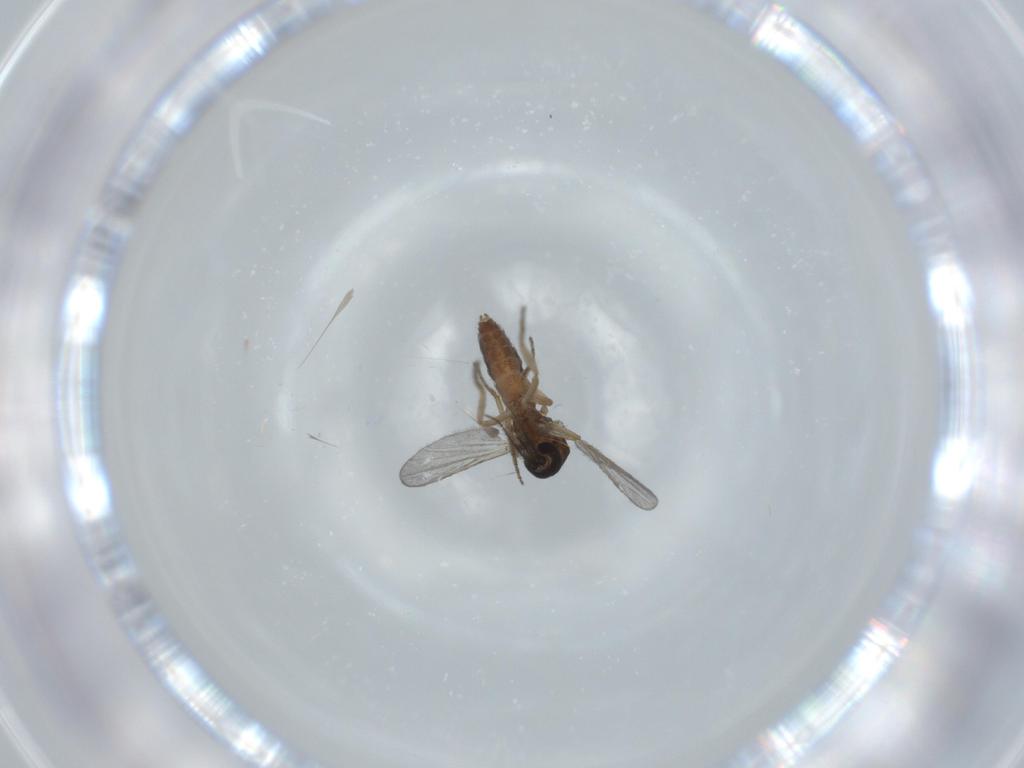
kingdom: Animalia
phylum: Arthropoda
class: Insecta
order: Diptera
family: Ceratopogonidae
